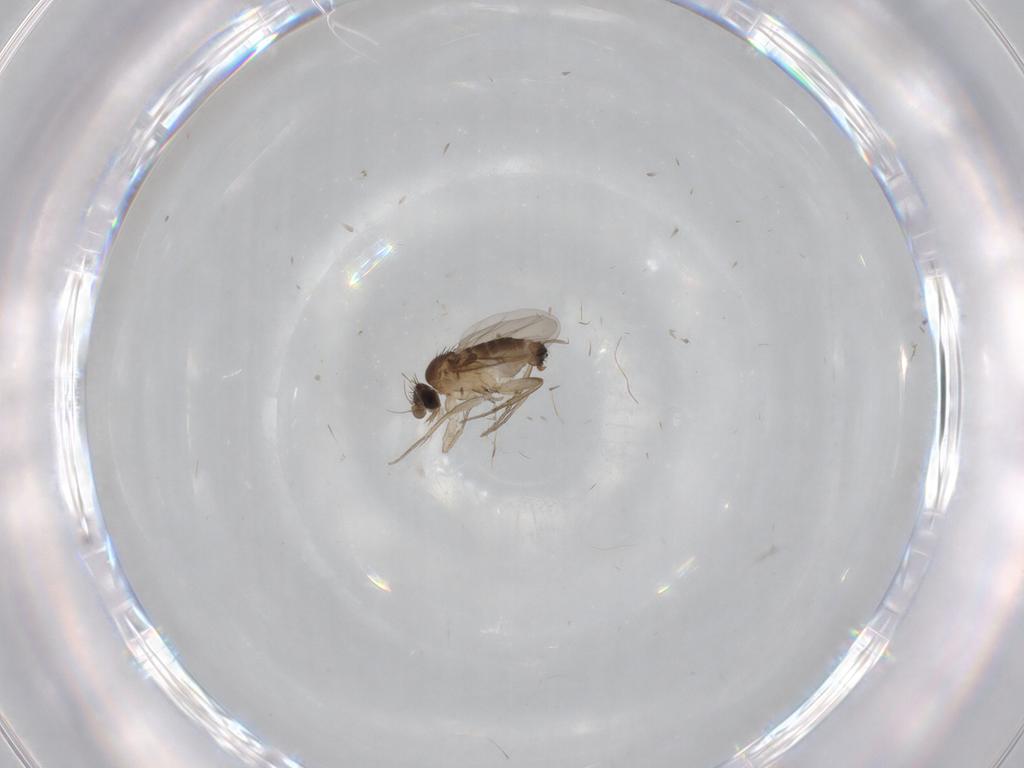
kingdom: Animalia
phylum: Arthropoda
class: Insecta
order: Diptera
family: Phoridae
